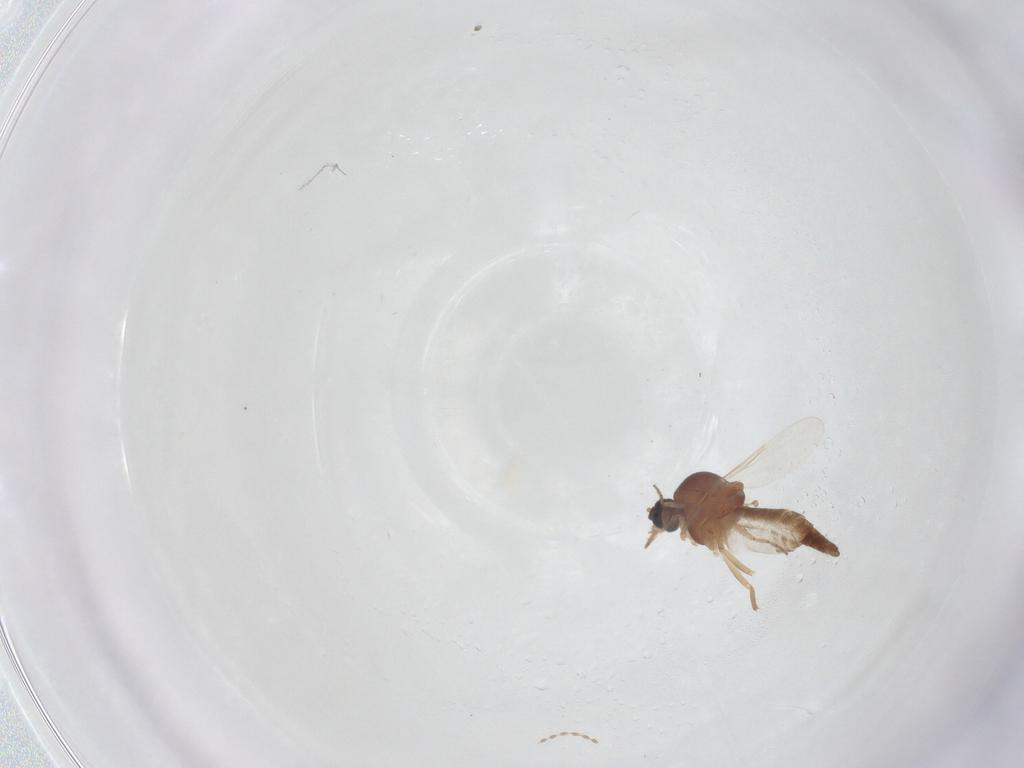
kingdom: Animalia
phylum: Arthropoda
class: Insecta
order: Diptera
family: Ceratopogonidae
